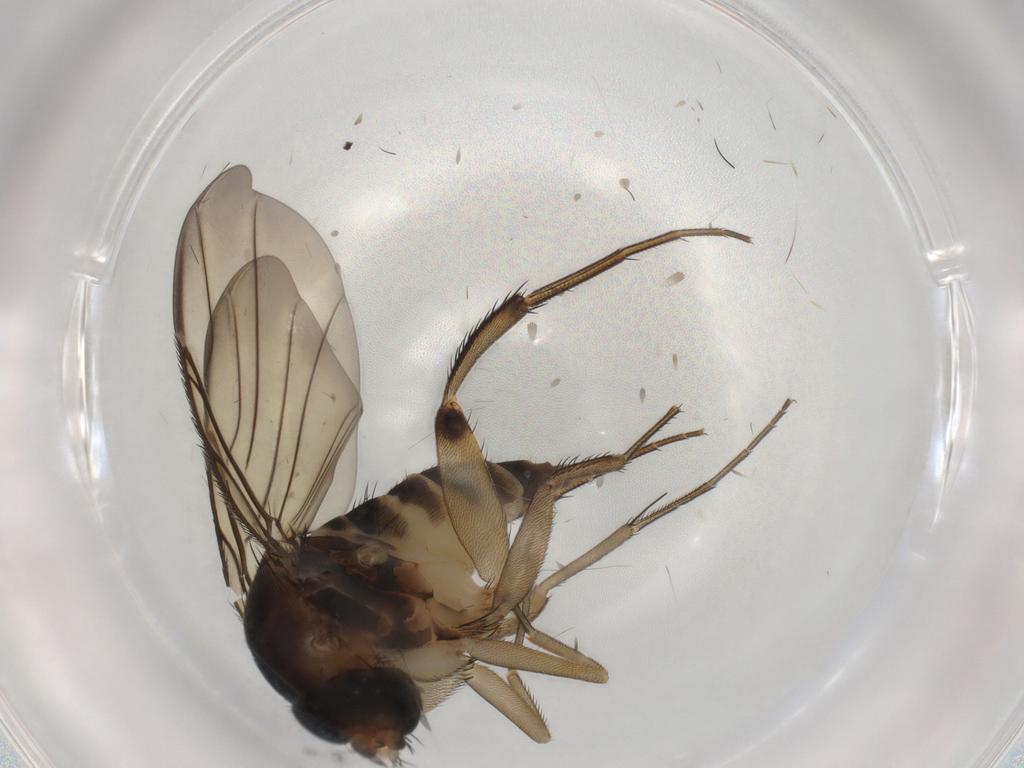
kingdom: Animalia
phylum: Arthropoda
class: Insecta
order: Diptera
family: Phoridae
